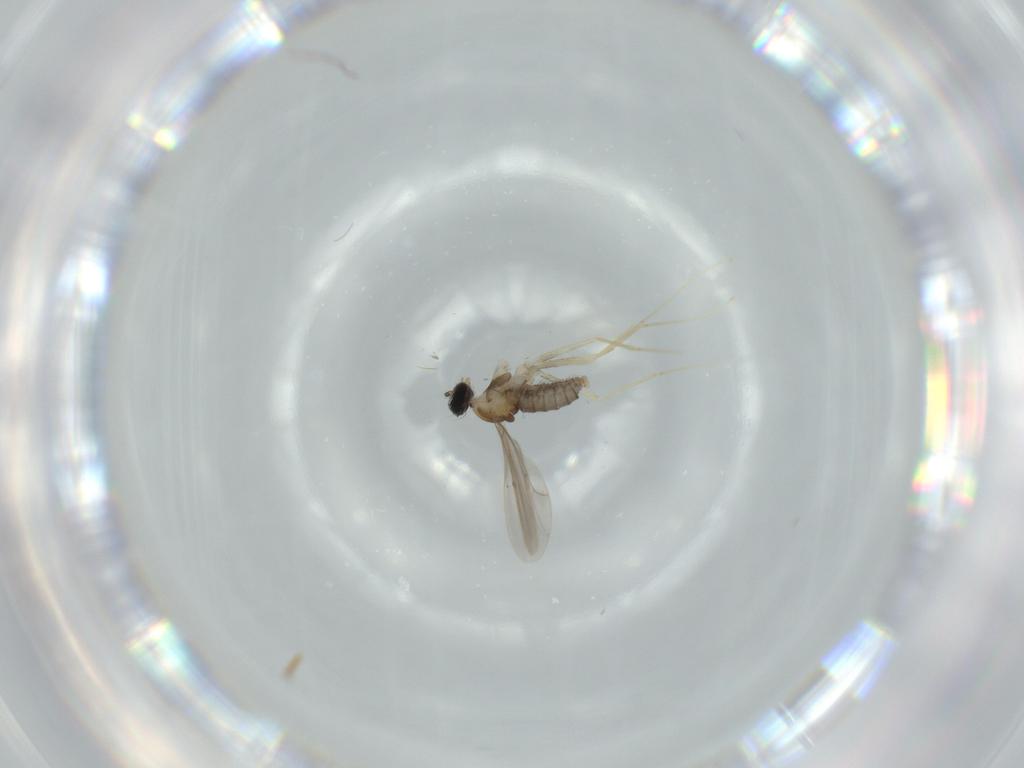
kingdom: Animalia
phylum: Arthropoda
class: Insecta
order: Diptera
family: Cecidomyiidae
